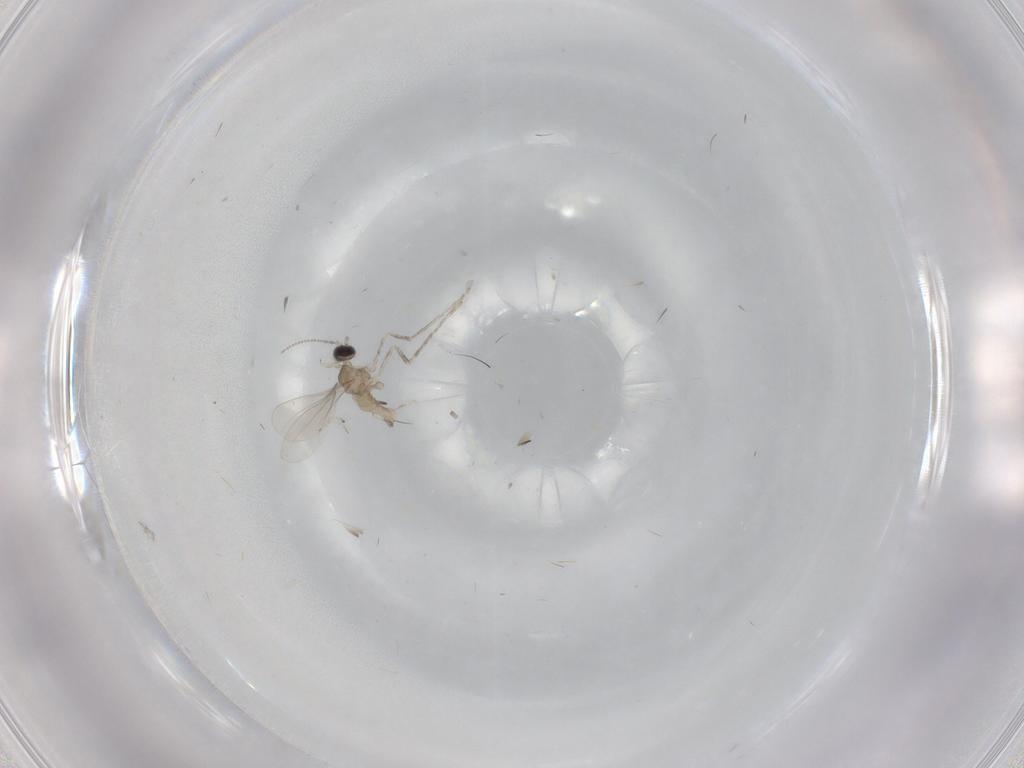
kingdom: Animalia
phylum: Arthropoda
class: Insecta
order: Diptera
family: Cecidomyiidae
